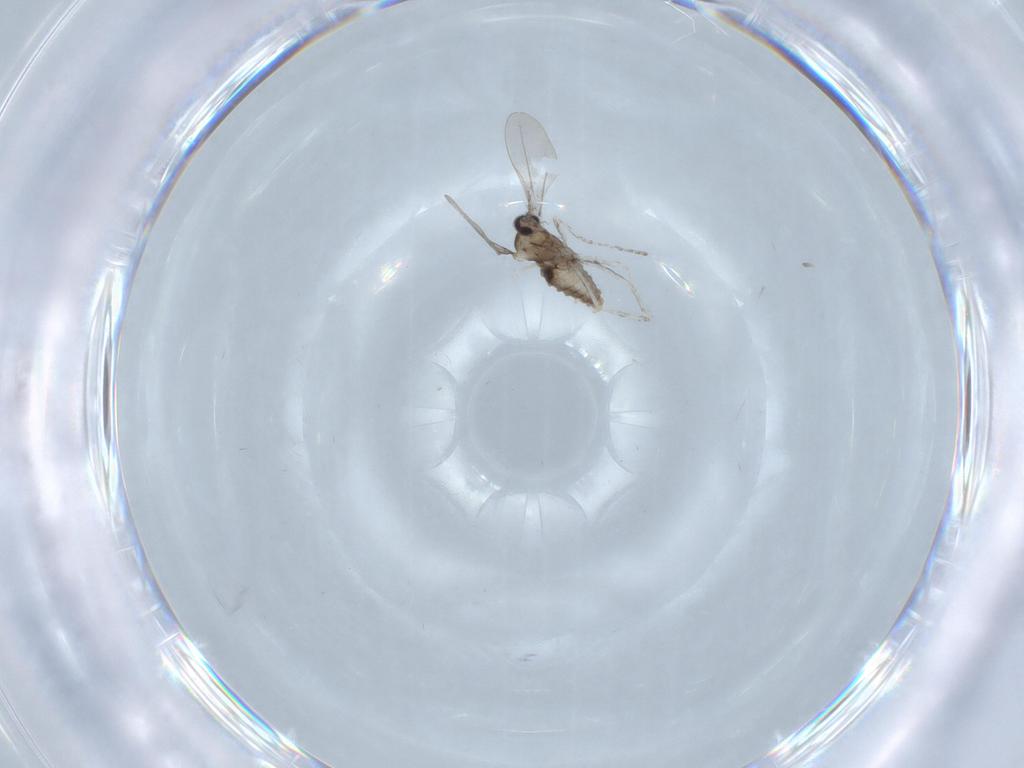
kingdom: Animalia
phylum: Arthropoda
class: Insecta
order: Diptera
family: Cecidomyiidae
